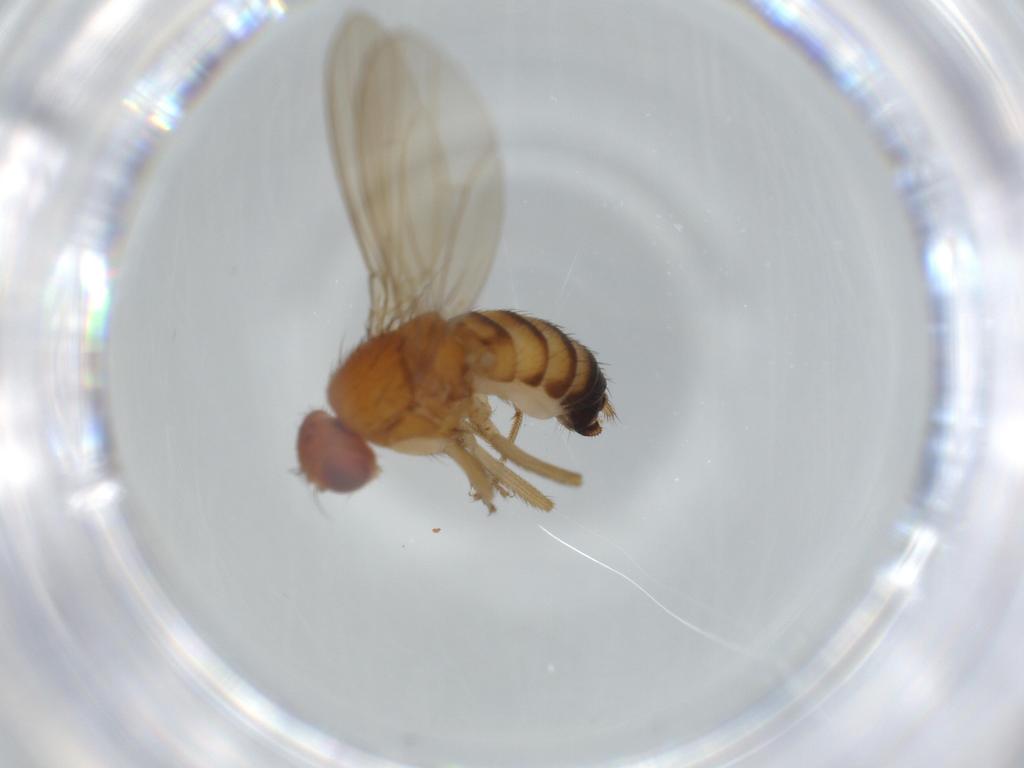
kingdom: Animalia
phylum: Arthropoda
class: Insecta
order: Diptera
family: Drosophilidae
